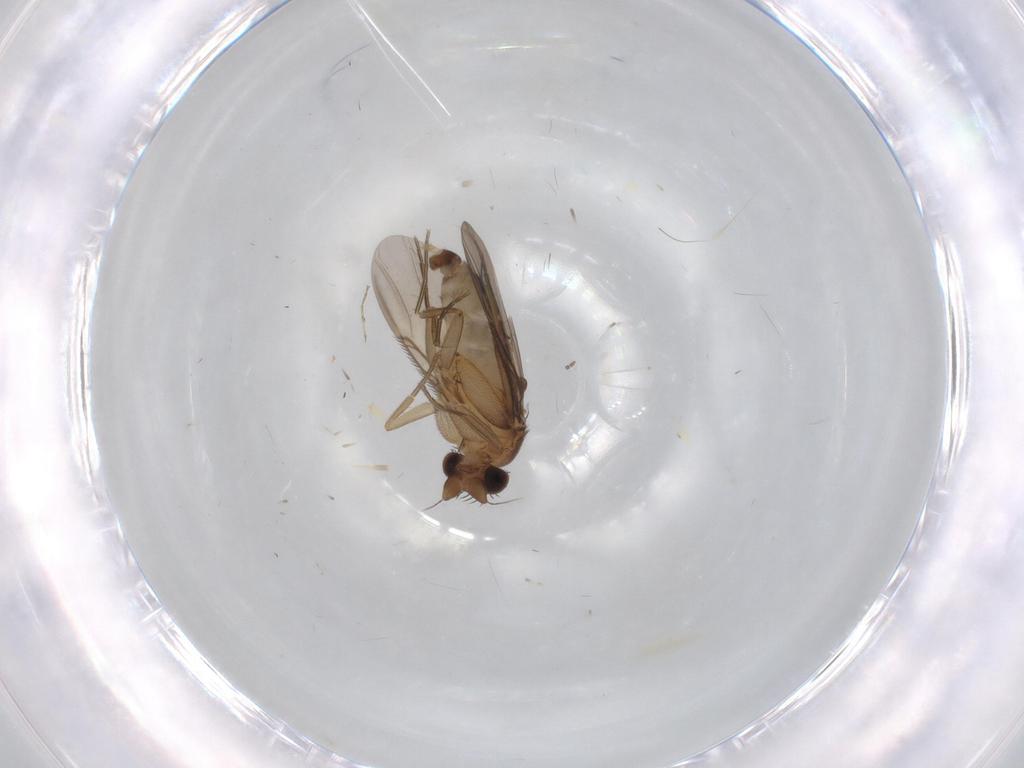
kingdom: Animalia
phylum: Arthropoda
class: Insecta
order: Diptera
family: Phoridae
